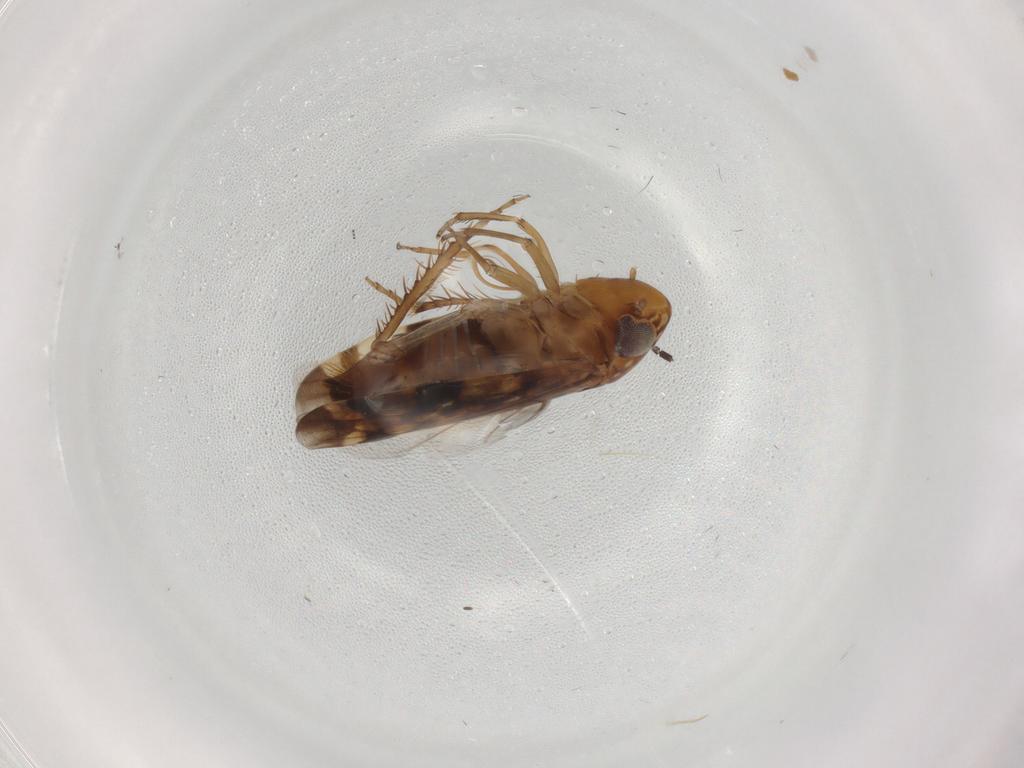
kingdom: Animalia
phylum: Arthropoda
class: Insecta
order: Hemiptera
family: Cicadellidae
